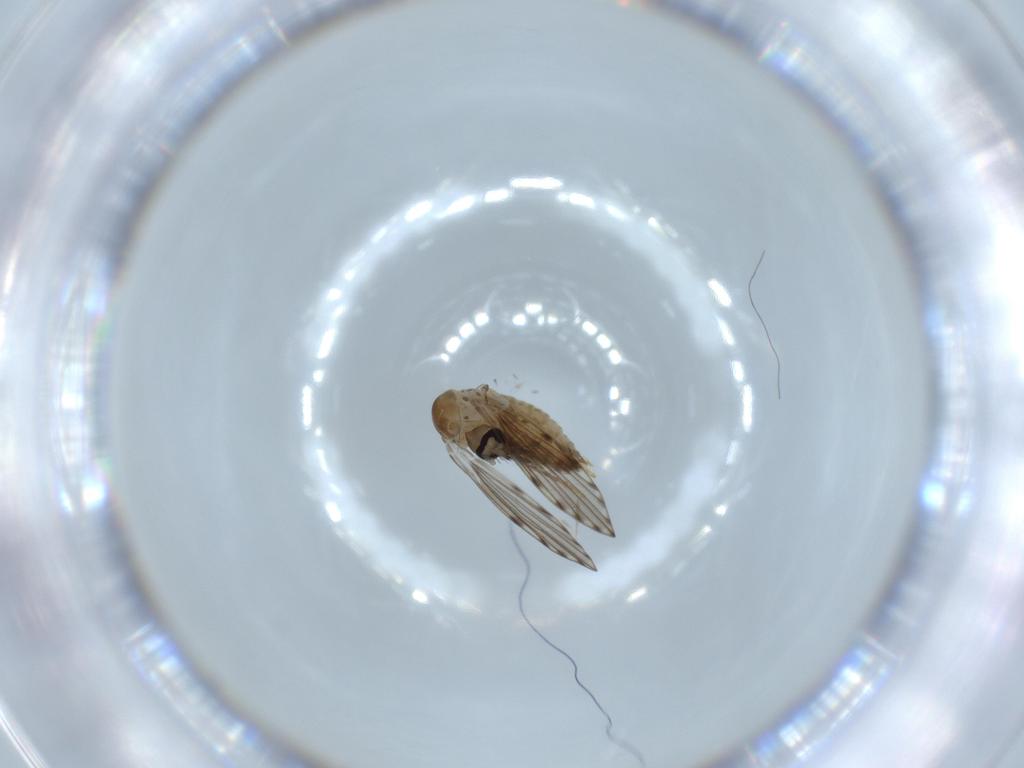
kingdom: Animalia
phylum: Arthropoda
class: Insecta
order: Diptera
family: Psychodidae
